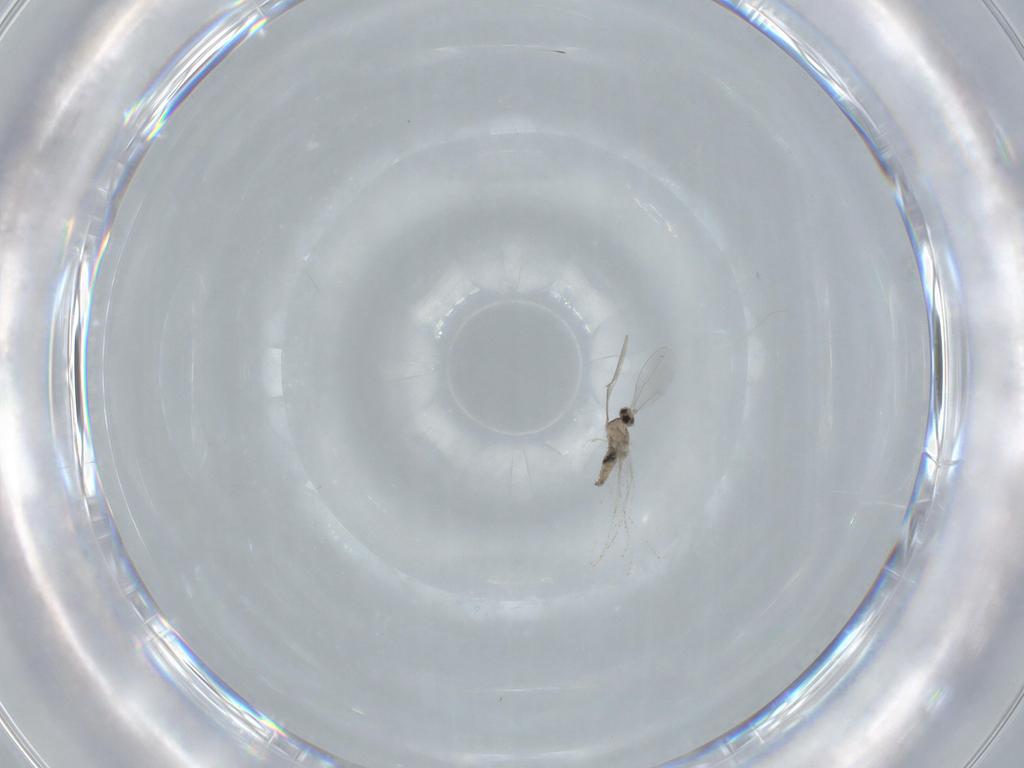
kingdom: Animalia
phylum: Arthropoda
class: Insecta
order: Diptera
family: Cecidomyiidae
